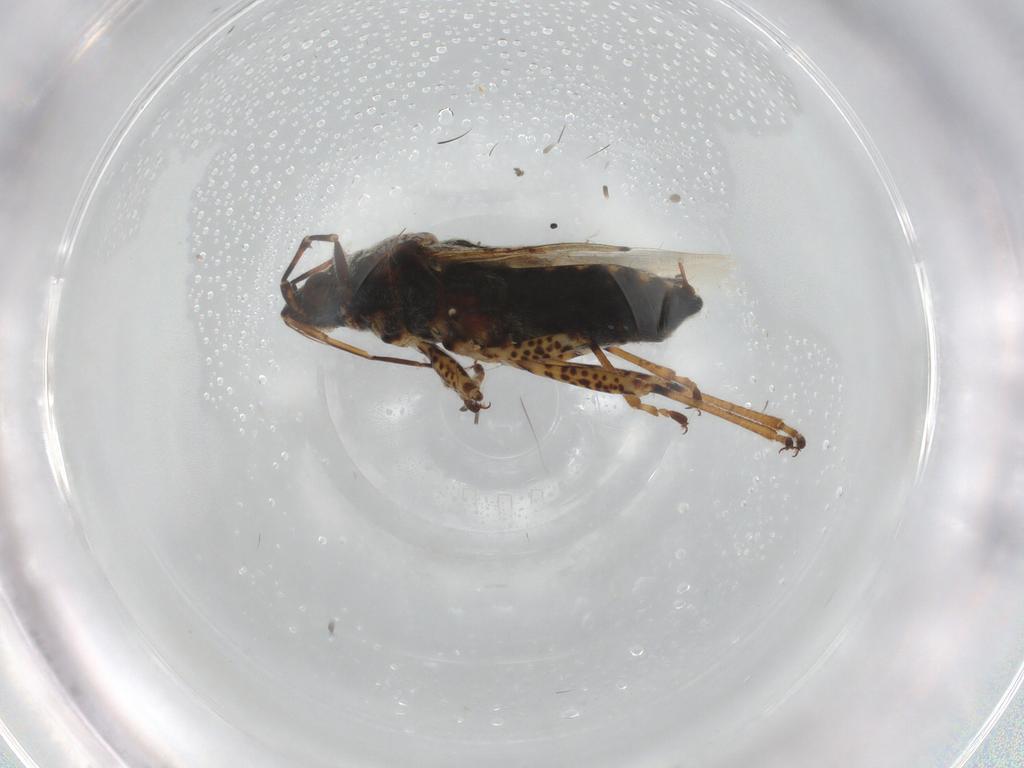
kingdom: Animalia
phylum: Arthropoda
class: Insecta
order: Hemiptera
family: Lygaeidae
